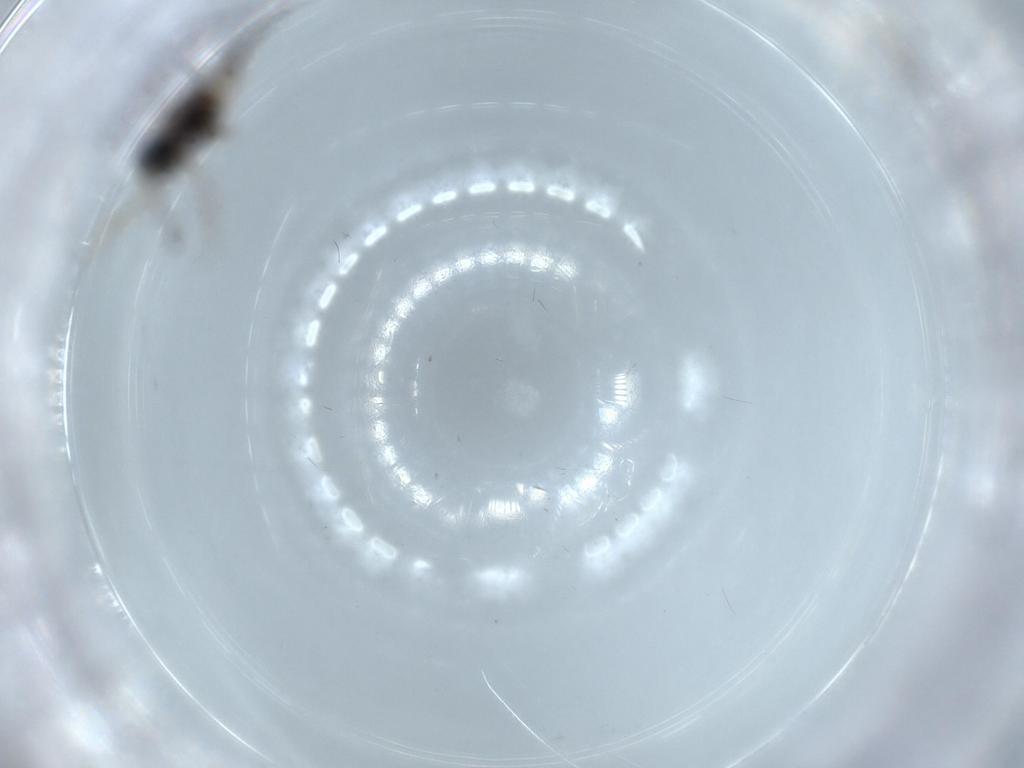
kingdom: Animalia
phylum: Arthropoda
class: Insecta
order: Hymenoptera
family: Figitidae
